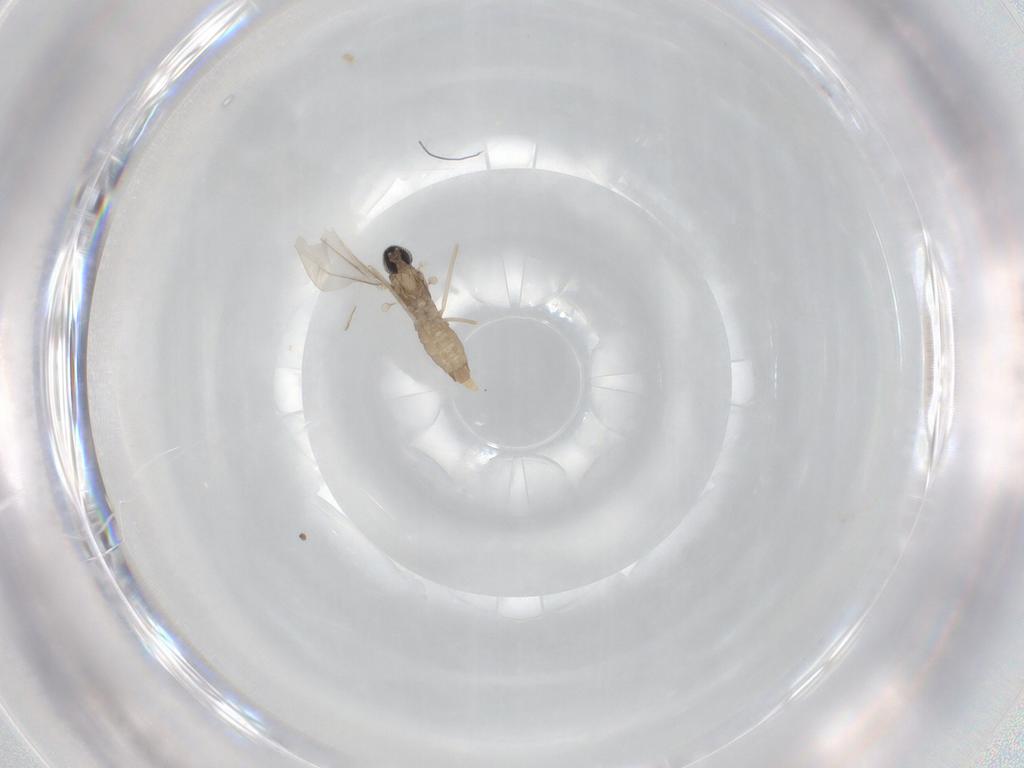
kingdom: Animalia
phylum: Arthropoda
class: Insecta
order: Diptera
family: Cecidomyiidae
